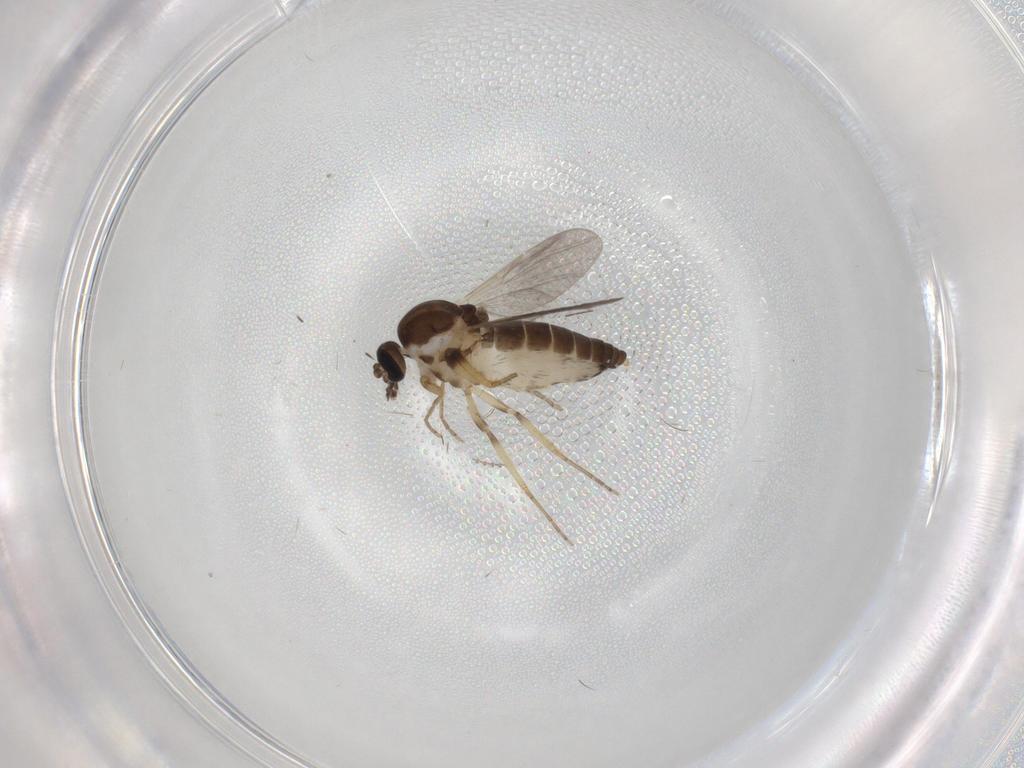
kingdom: Animalia
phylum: Arthropoda
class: Insecta
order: Diptera
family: Ceratopogonidae
